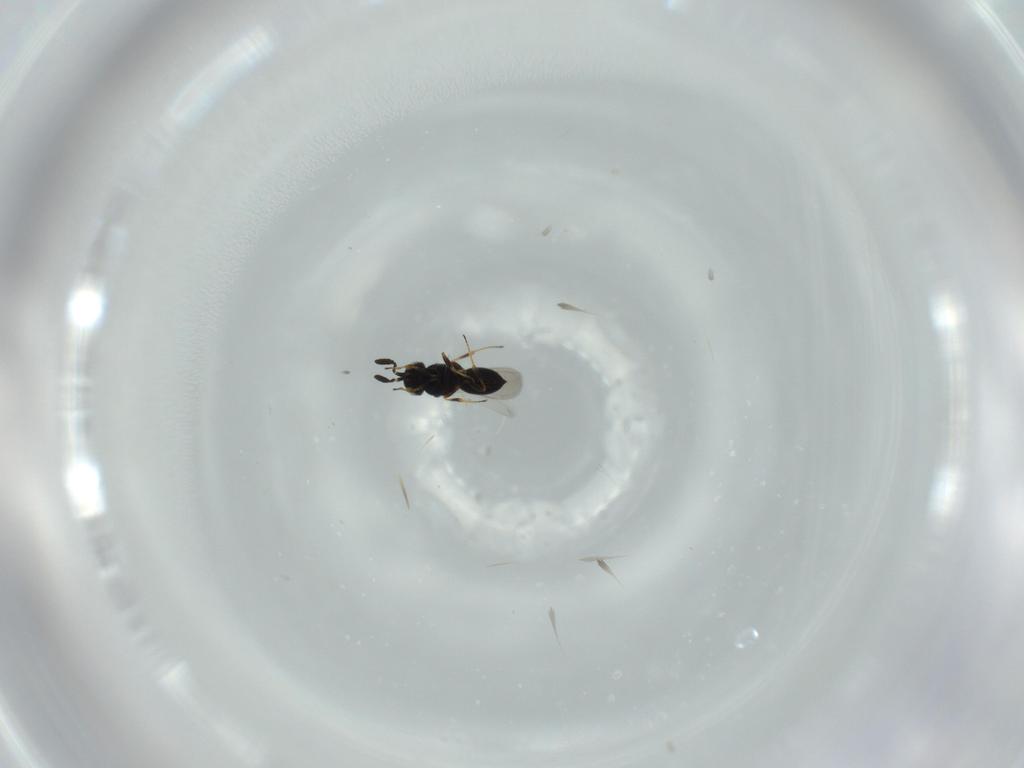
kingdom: Animalia
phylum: Arthropoda
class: Insecta
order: Hymenoptera
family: Scelionidae
